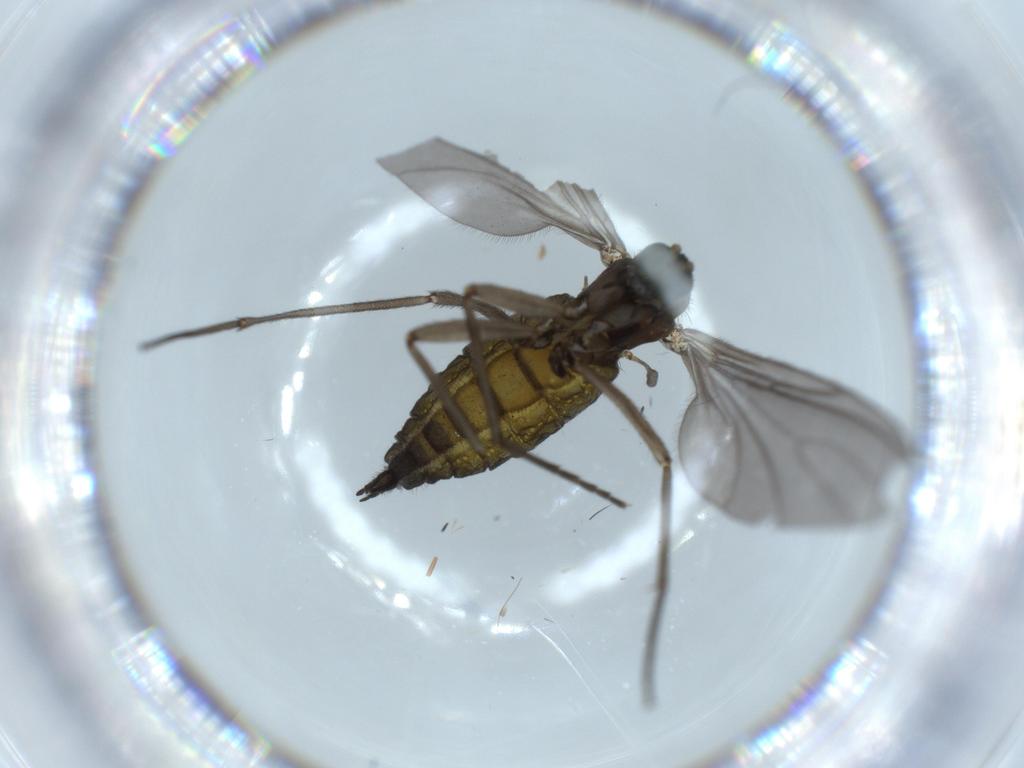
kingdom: Animalia
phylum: Arthropoda
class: Insecta
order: Diptera
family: Sciaridae
